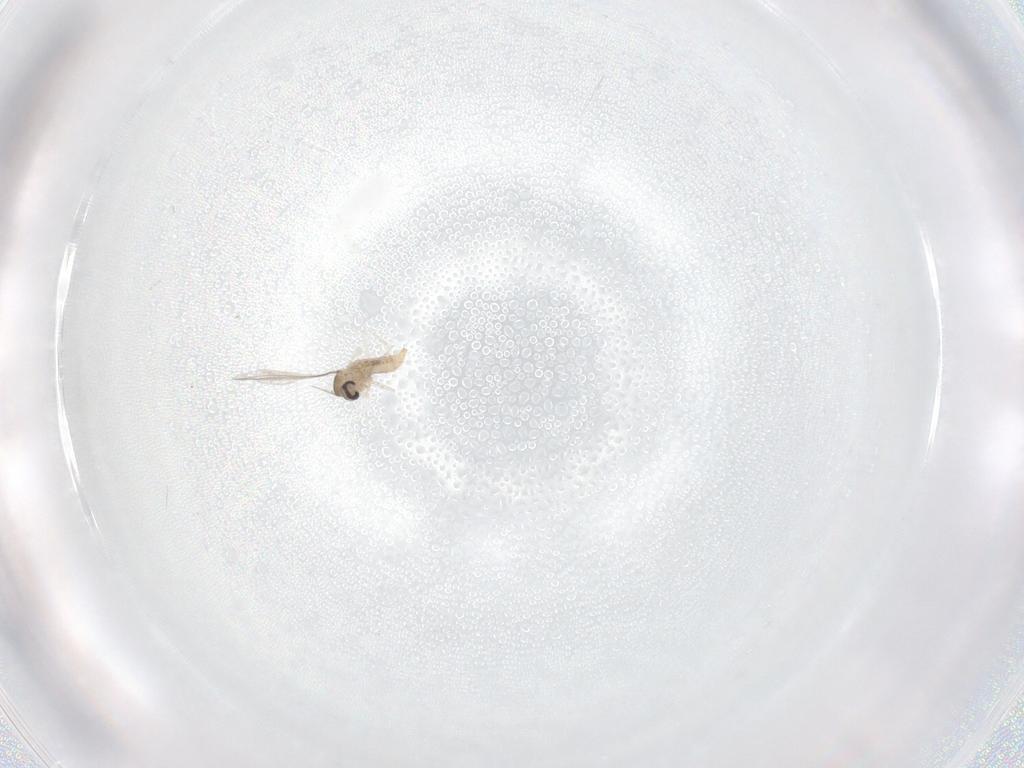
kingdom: Animalia
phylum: Arthropoda
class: Insecta
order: Diptera
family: Cecidomyiidae
